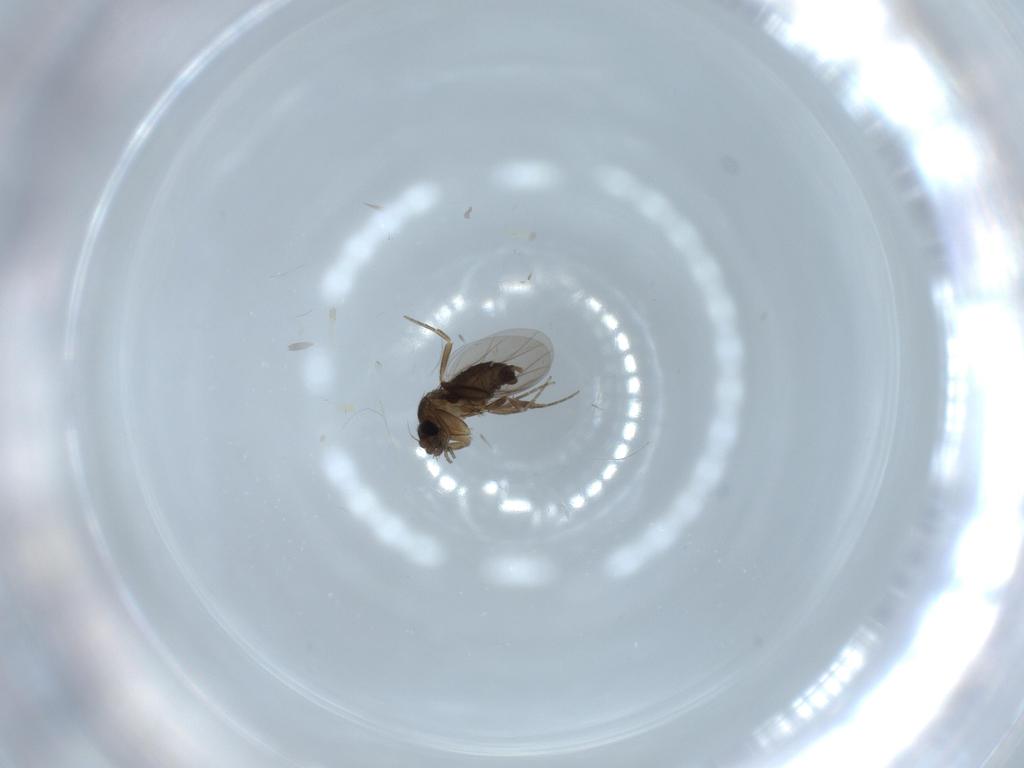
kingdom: Animalia
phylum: Arthropoda
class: Insecta
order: Diptera
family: Phoridae
